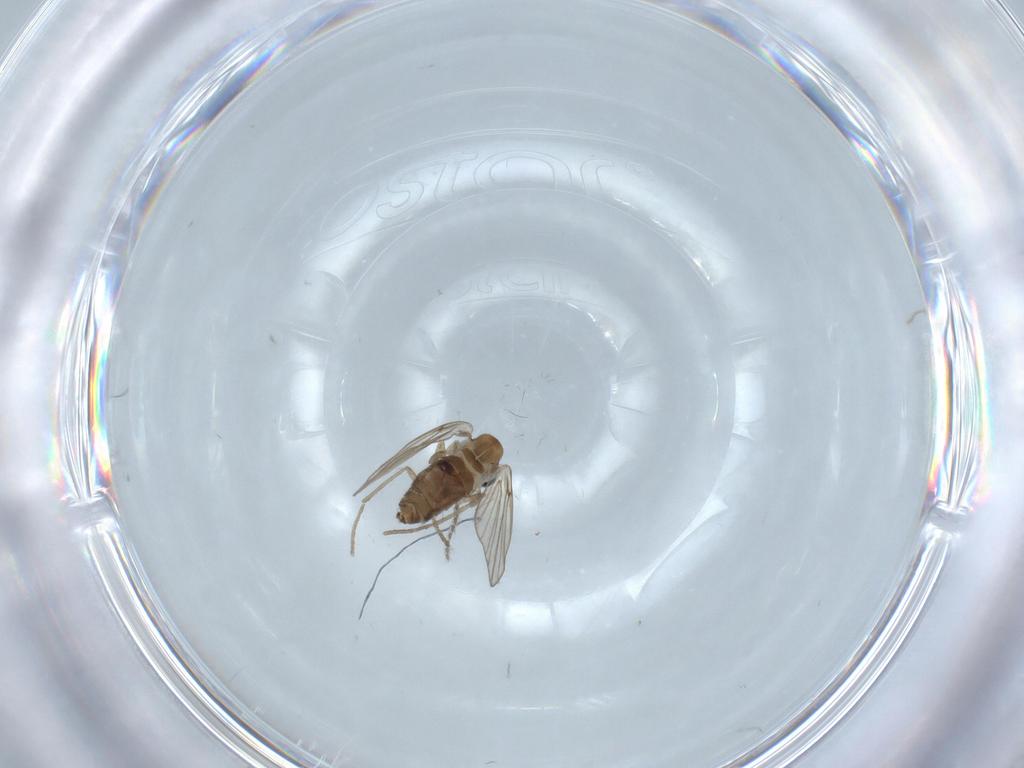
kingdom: Animalia
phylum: Arthropoda
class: Insecta
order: Diptera
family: Psychodidae
